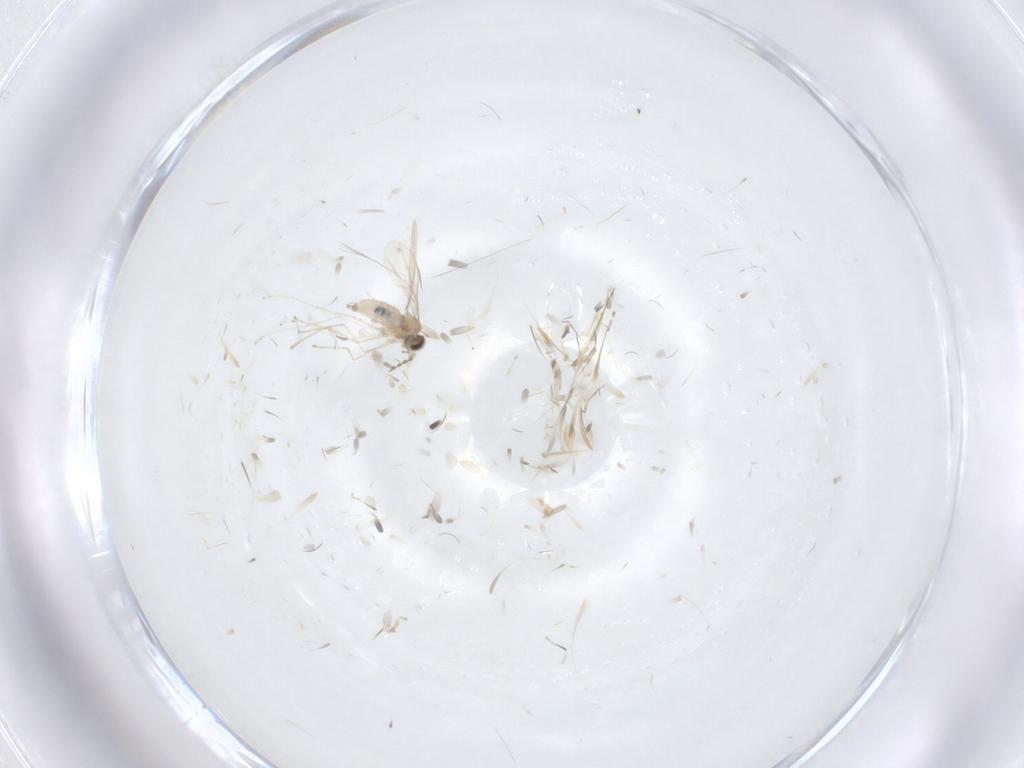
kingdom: Animalia
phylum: Arthropoda
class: Insecta
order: Diptera
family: Cecidomyiidae
